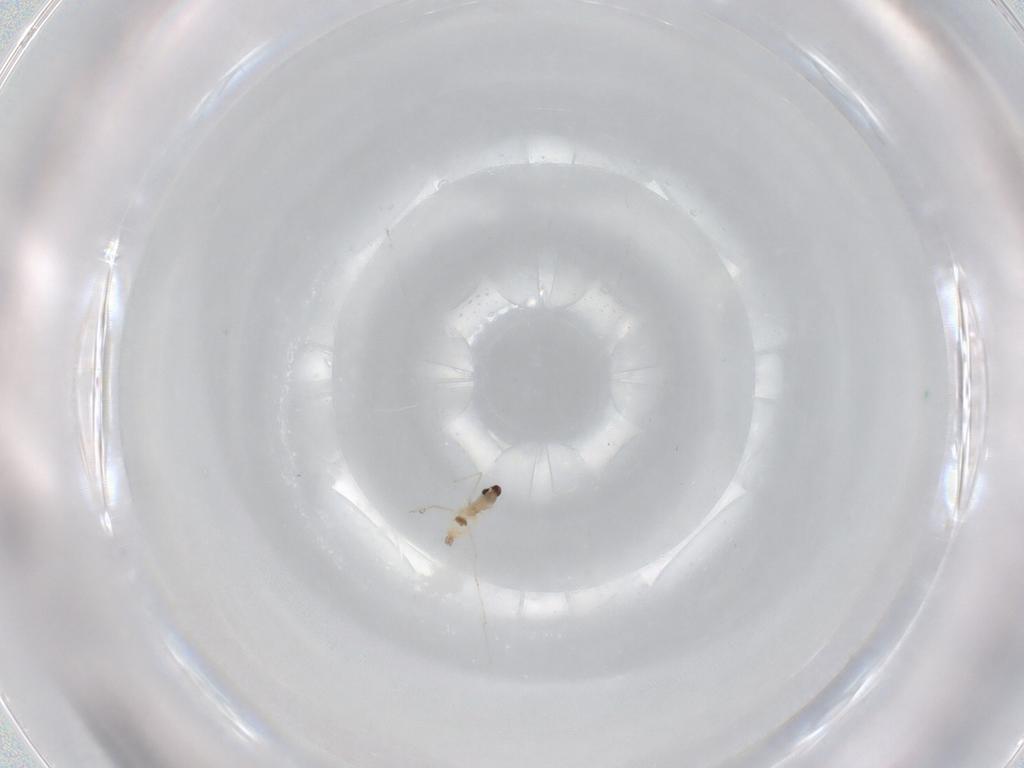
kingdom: Animalia
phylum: Arthropoda
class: Insecta
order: Diptera
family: Cecidomyiidae
